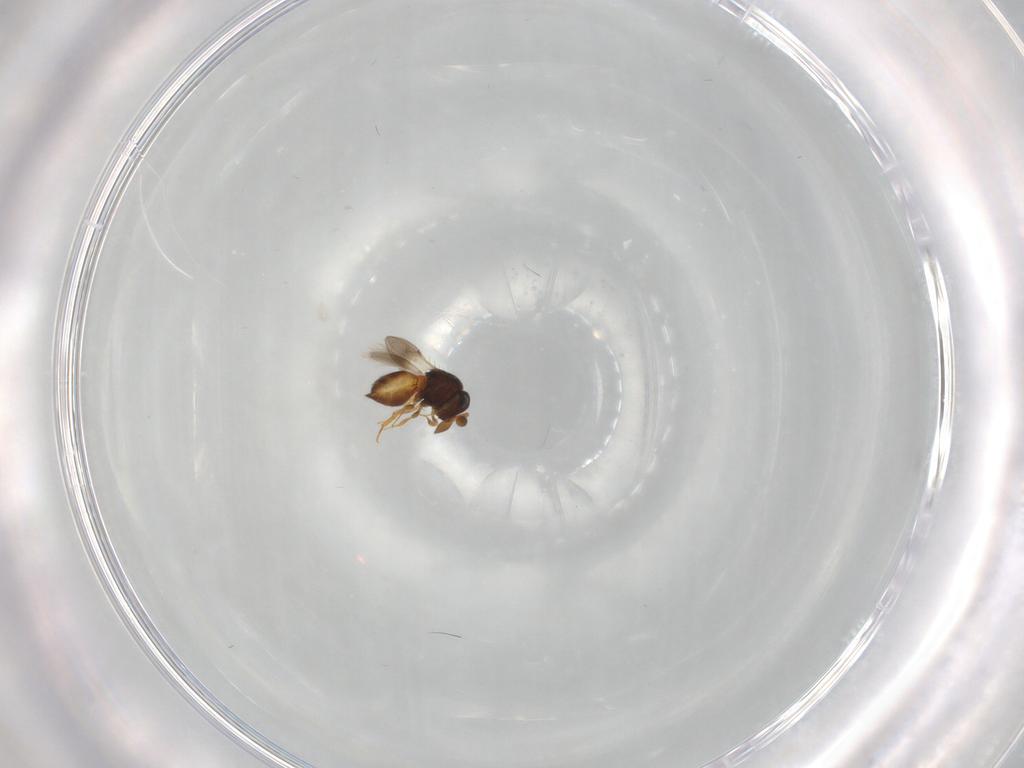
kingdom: Animalia
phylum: Arthropoda
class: Insecta
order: Hymenoptera
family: Scelionidae
